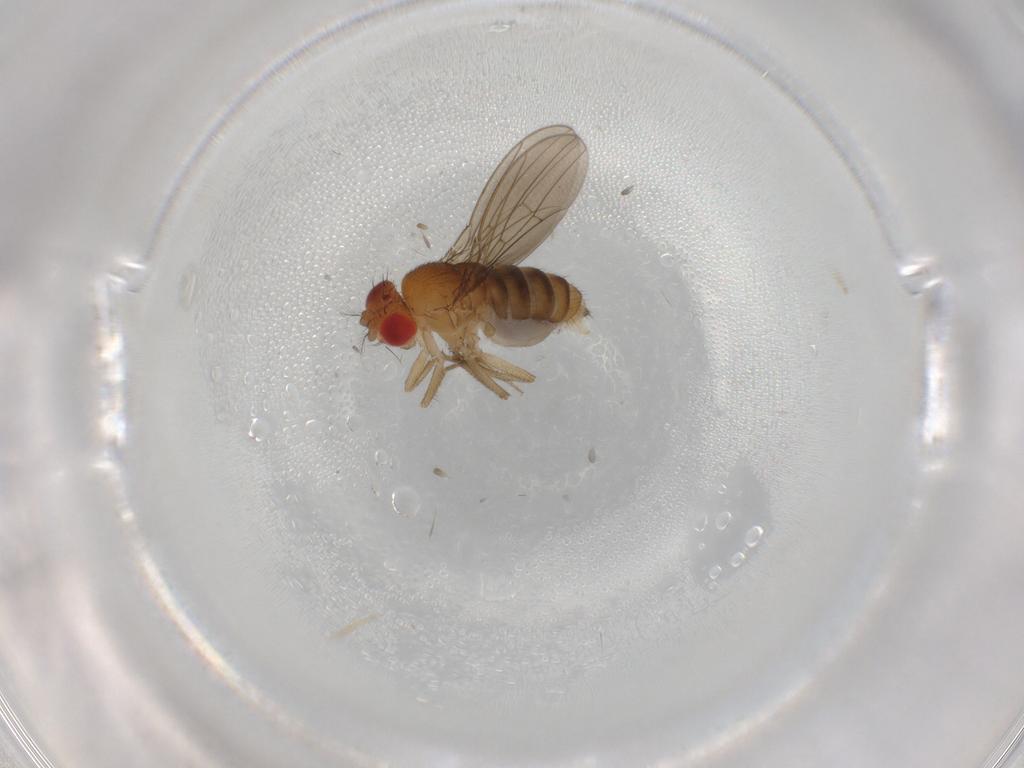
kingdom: Animalia
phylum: Arthropoda
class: Insecta
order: Diptera
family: Drosophilidae
